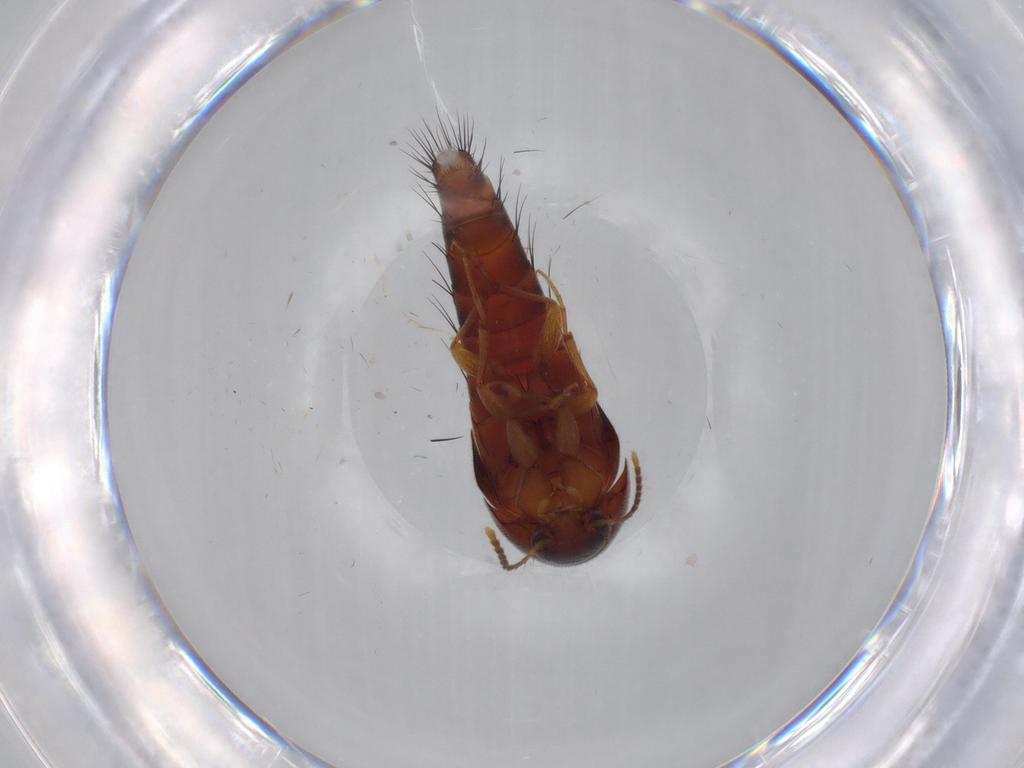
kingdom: Animalia
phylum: Arthropoda
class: Insecta
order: Coleoptera
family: Staphylinidae
